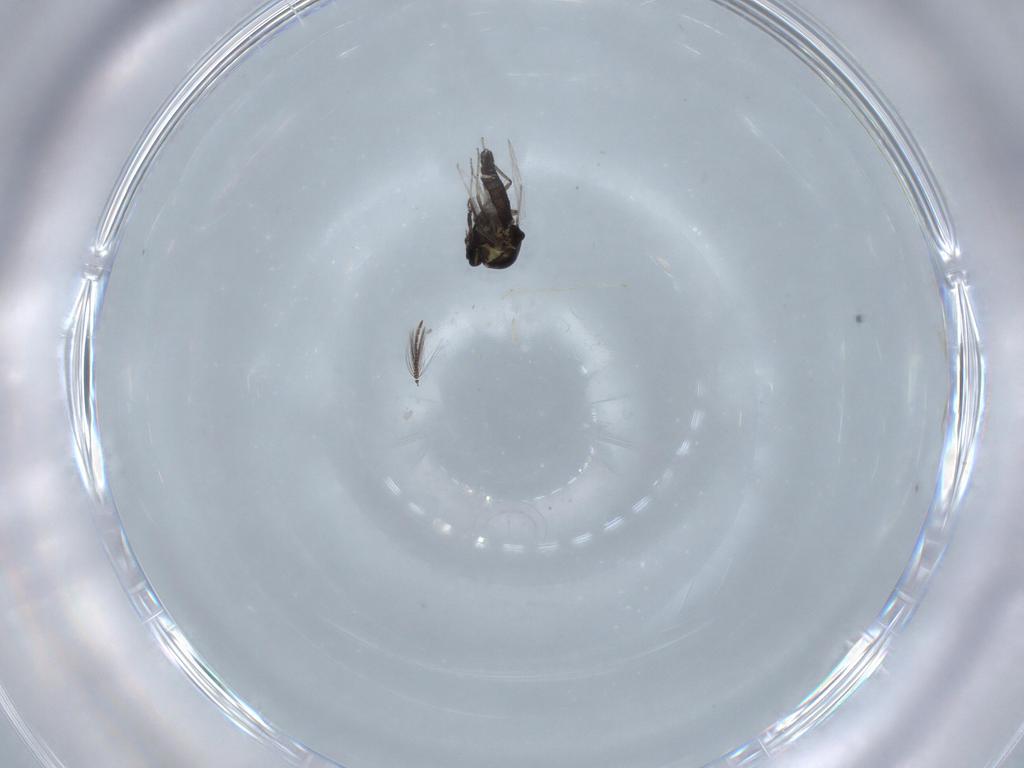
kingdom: Animalia
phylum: Arthropoda
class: Insecta
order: Diptera
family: Ceratopogonidae
